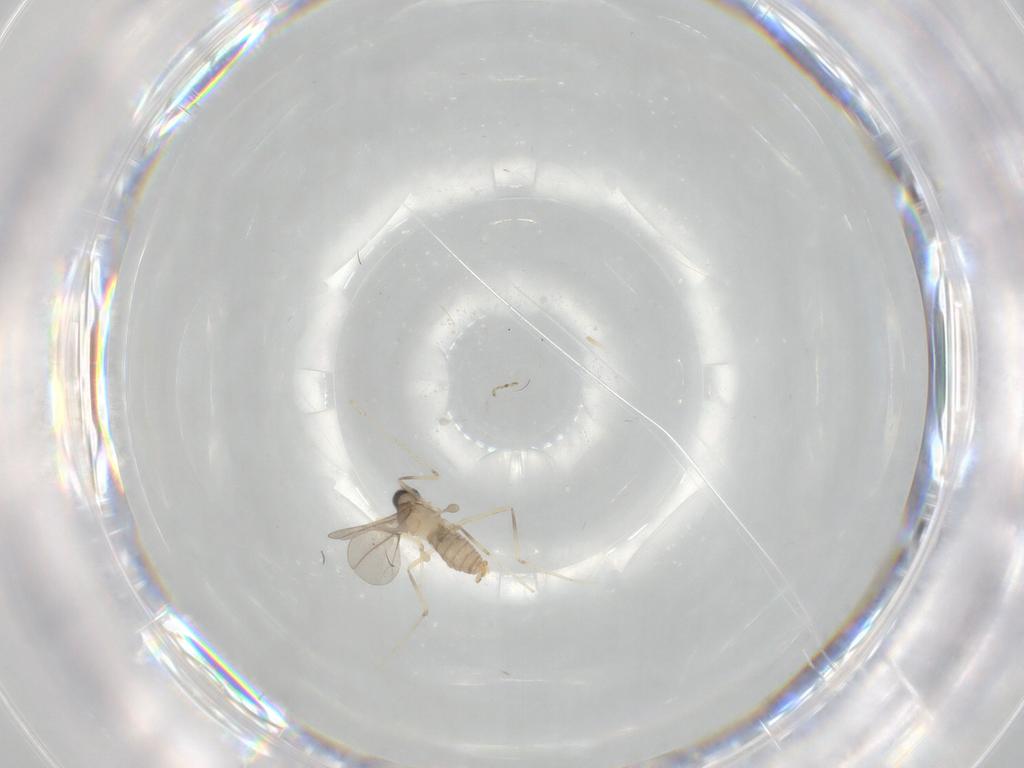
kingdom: Animalia
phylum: Arthropoda
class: Insecta
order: Diptera
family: Cecidomyiidae
